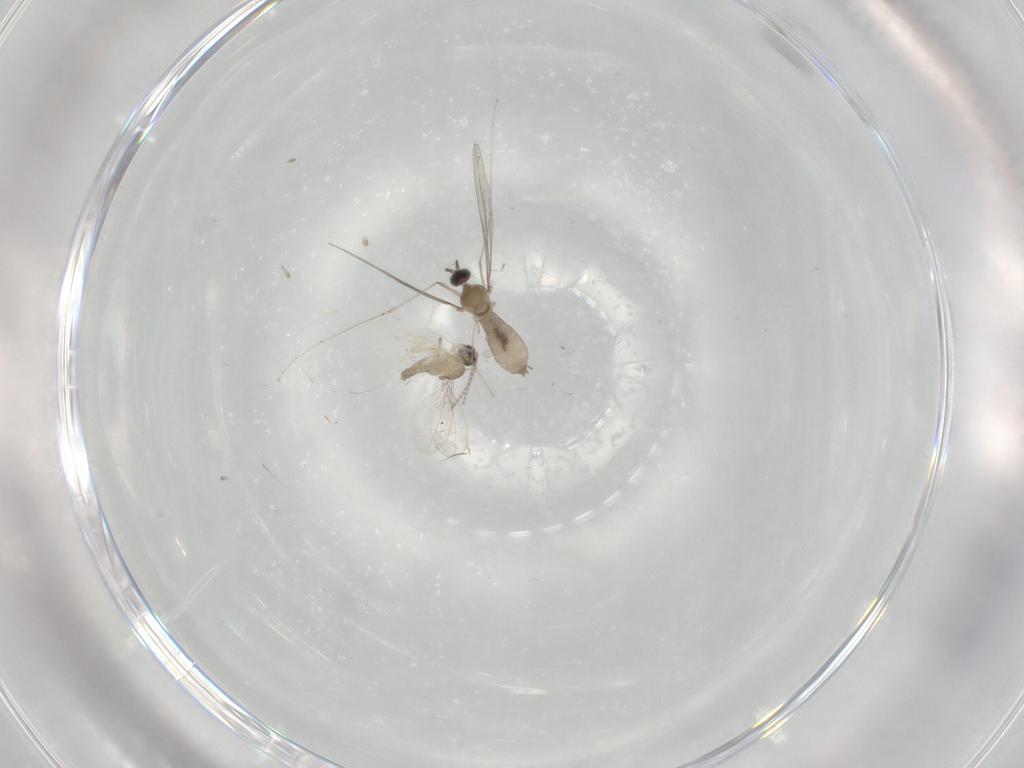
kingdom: Animalia
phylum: Arthropoda
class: Insecta
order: Diptera
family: Cecidomyiidae
